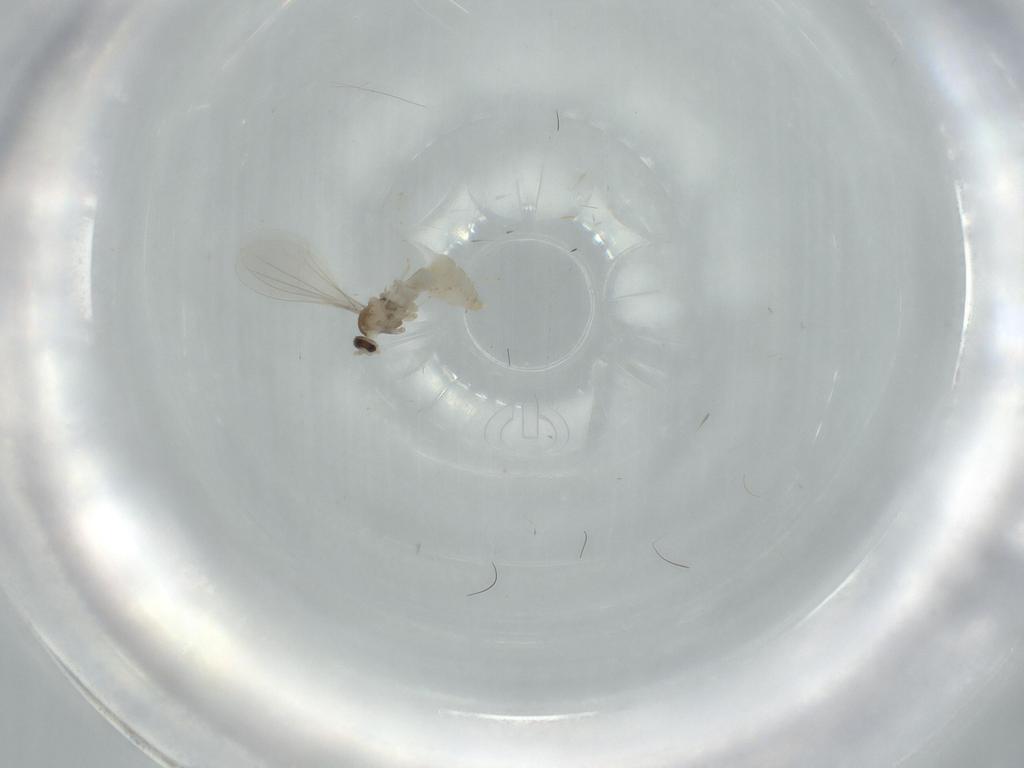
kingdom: Animalia
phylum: Arthropoda
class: Insecta
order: Diptera
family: Cecidomyiidae
